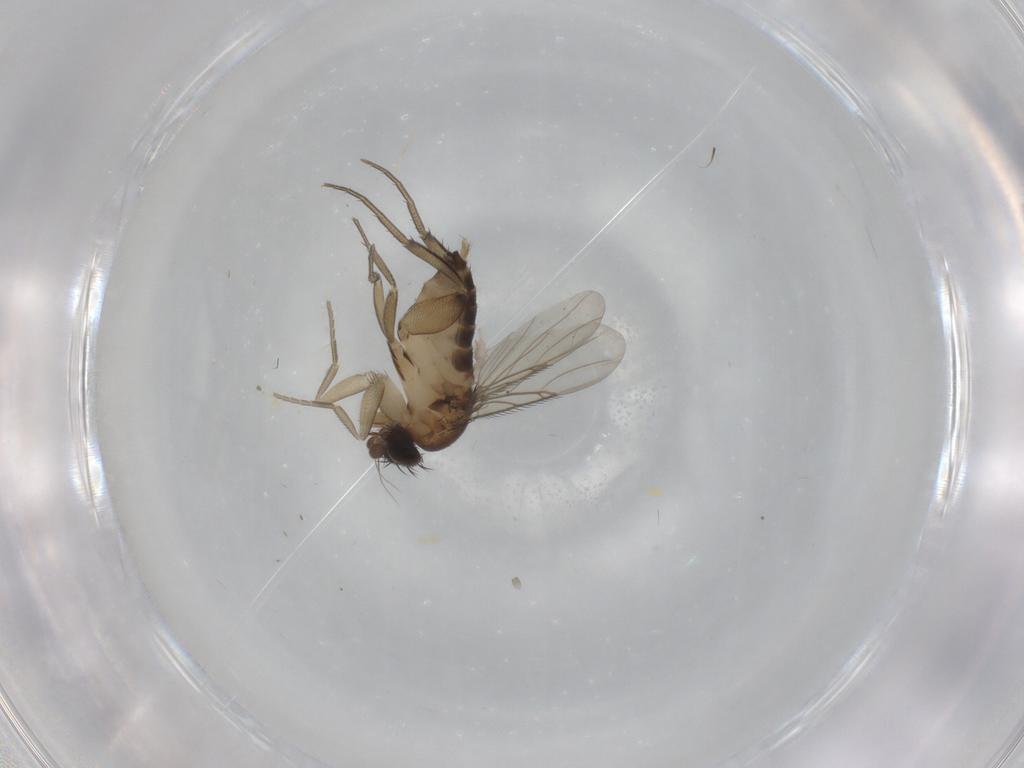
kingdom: Animalia
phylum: Arthropoda
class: Insecta
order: Diptera
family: Phoridae
